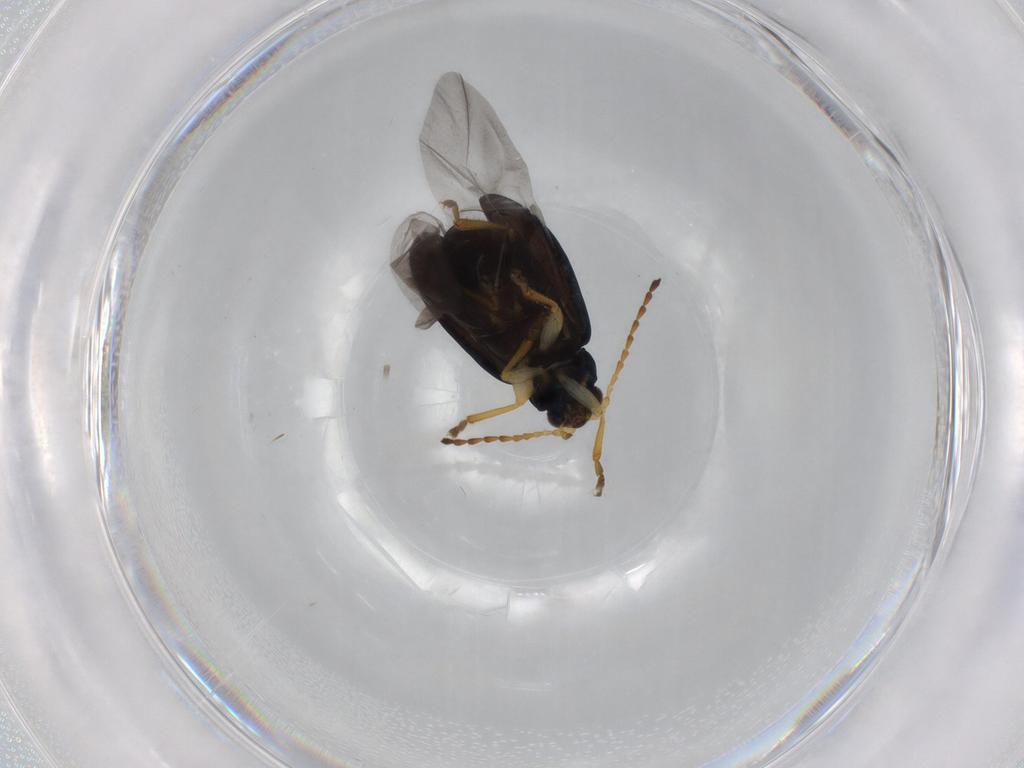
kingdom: Animalia
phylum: Arthropoda
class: Insecta
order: Coleoptera
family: Chrysomelidae
